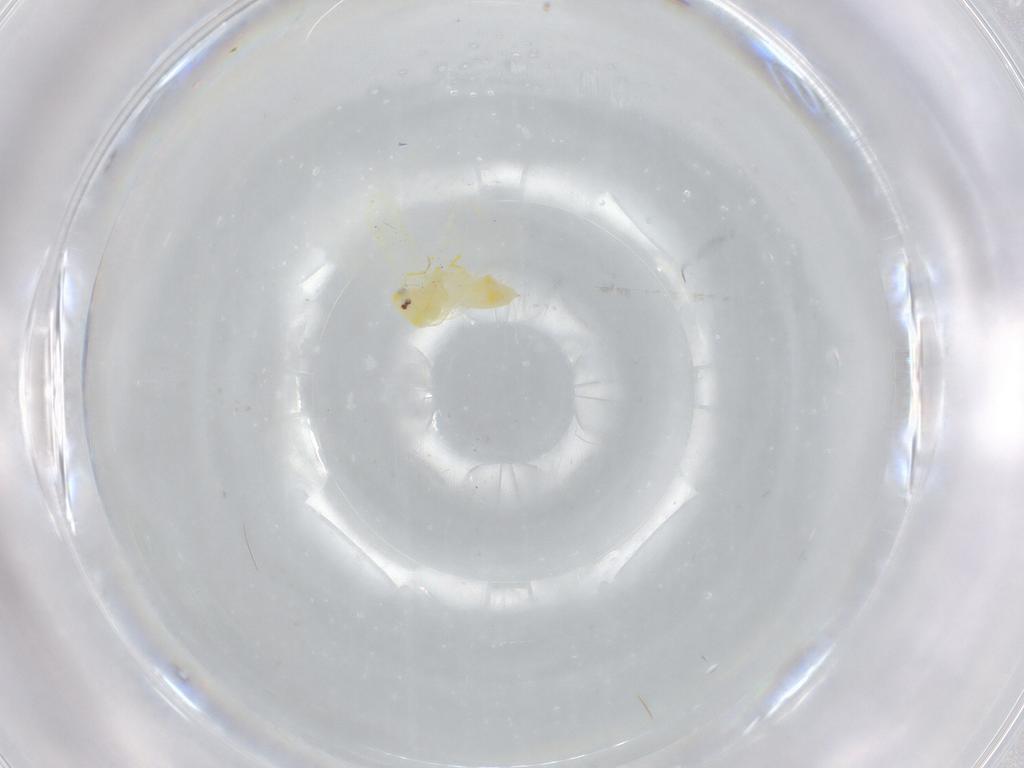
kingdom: Animalia
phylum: Arthropoda
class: Insecta
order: Hemiptera
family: Aleyrodidae
